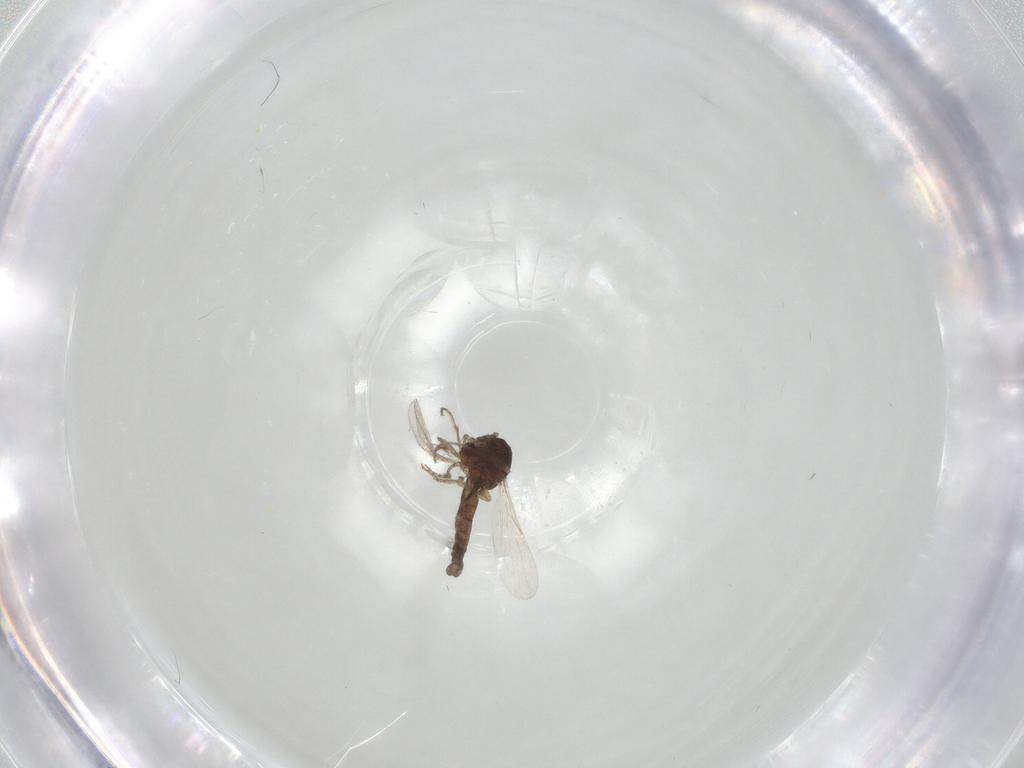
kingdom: Animalia
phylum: Arthropoda
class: Insecta
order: Diptera
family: Ceratopogonidae
